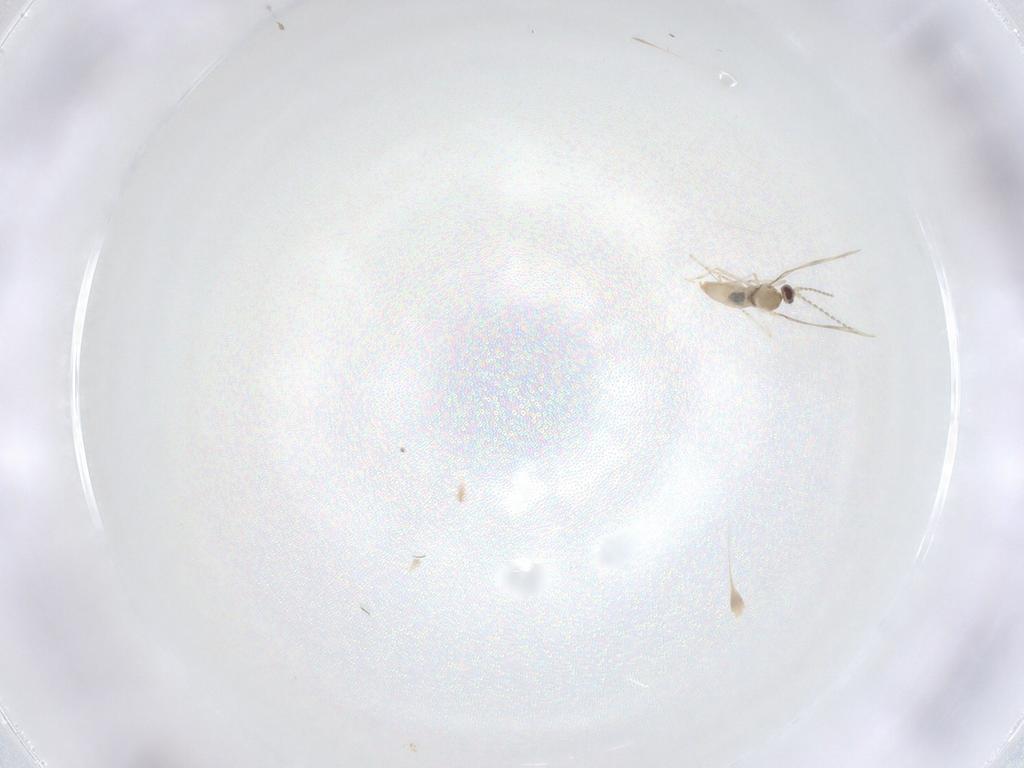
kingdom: Animalia
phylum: Arthropoda
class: Insecta
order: Diptera
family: Cecidomyiidae
